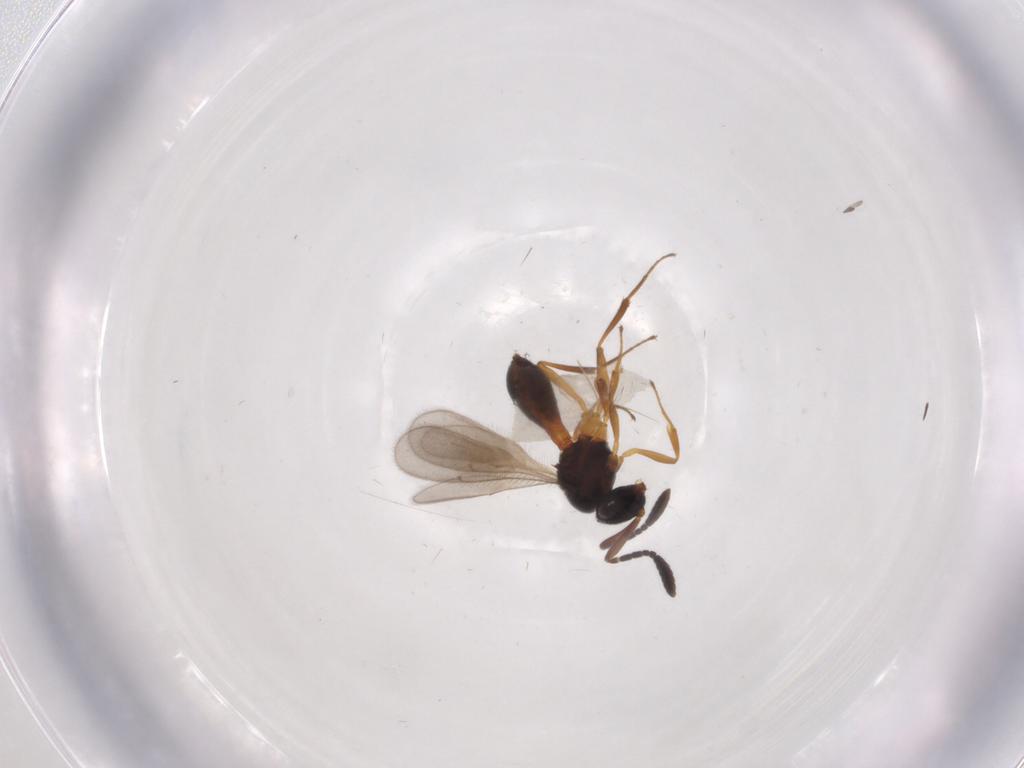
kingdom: Animalia
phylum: Arthropoda
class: Insecta
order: Hymenoptera
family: Scelionidae
